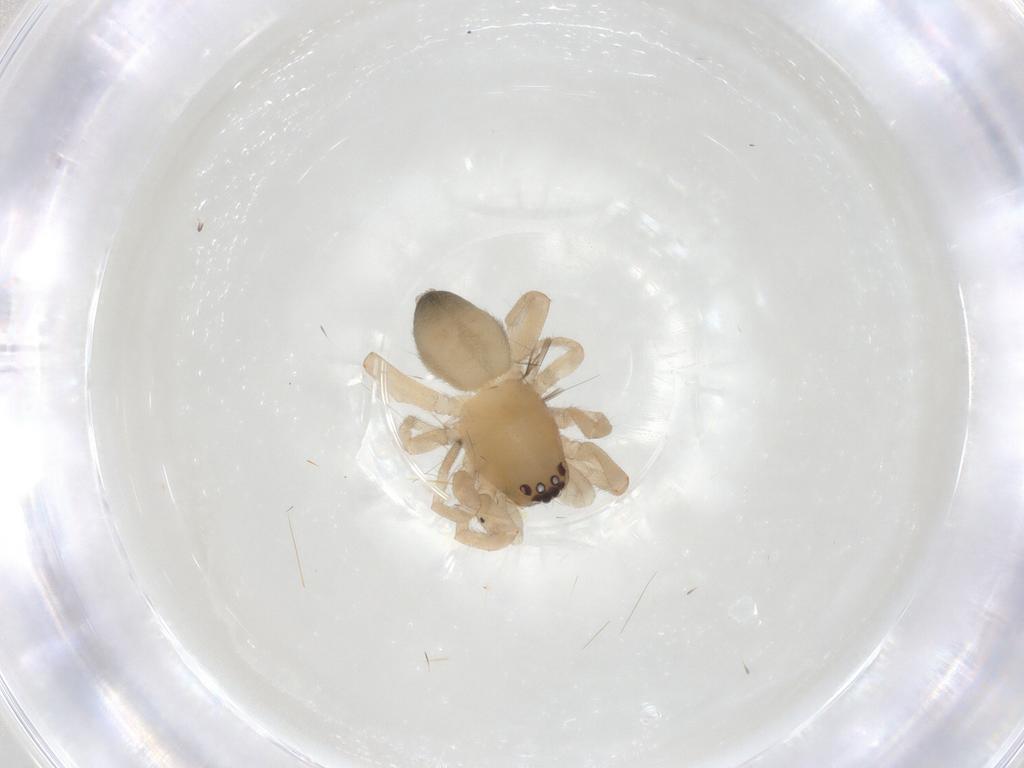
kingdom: Animalia
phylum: Arthropoda
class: Arachnida
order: Araneae
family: Trachelidae
